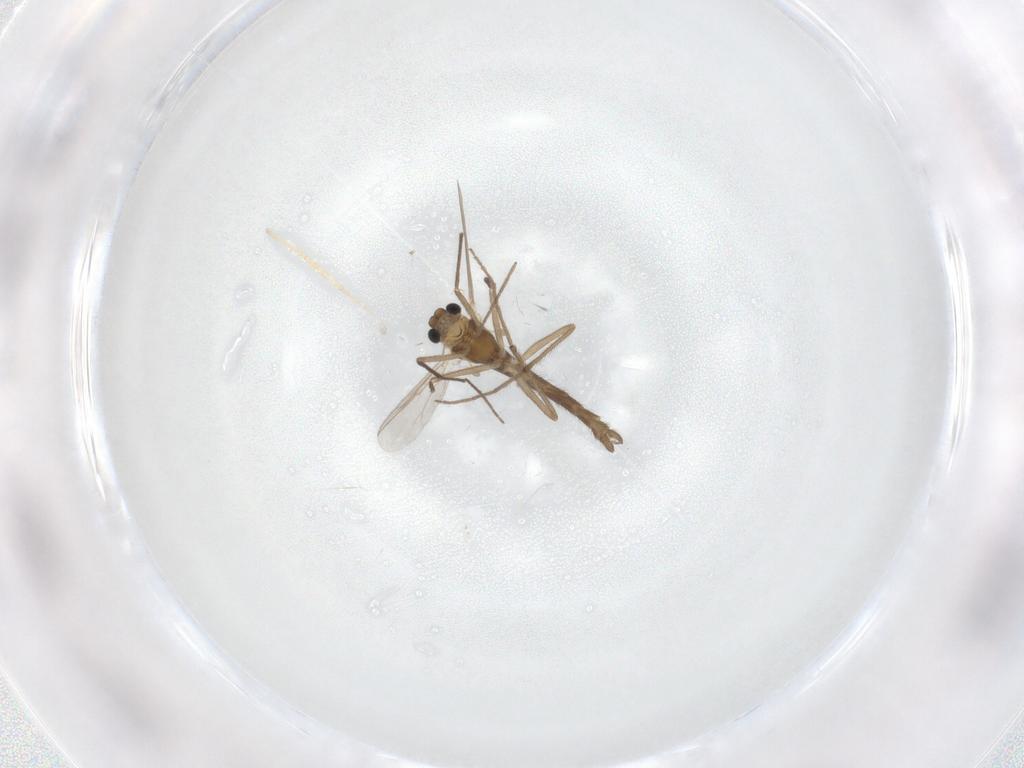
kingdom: Animalia
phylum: Arthropoda
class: Insecta
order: Diptera
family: Chironomidae
